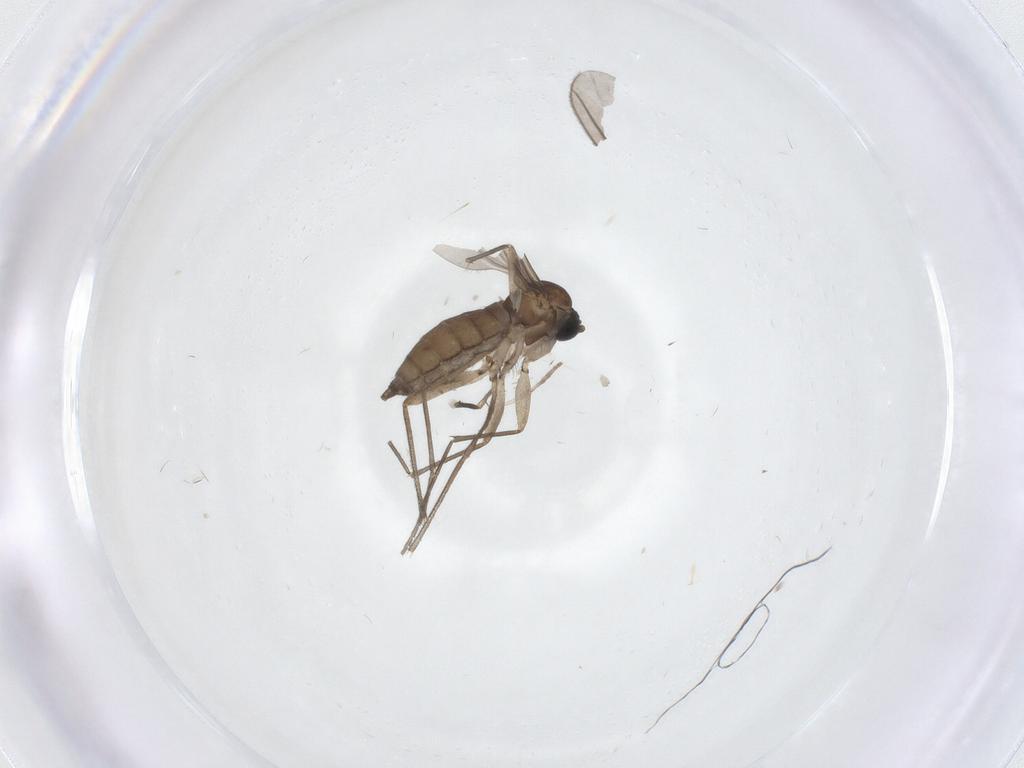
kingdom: Animalia
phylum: Arthropoda
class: Insecta
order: Diptera
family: Sciaridae
